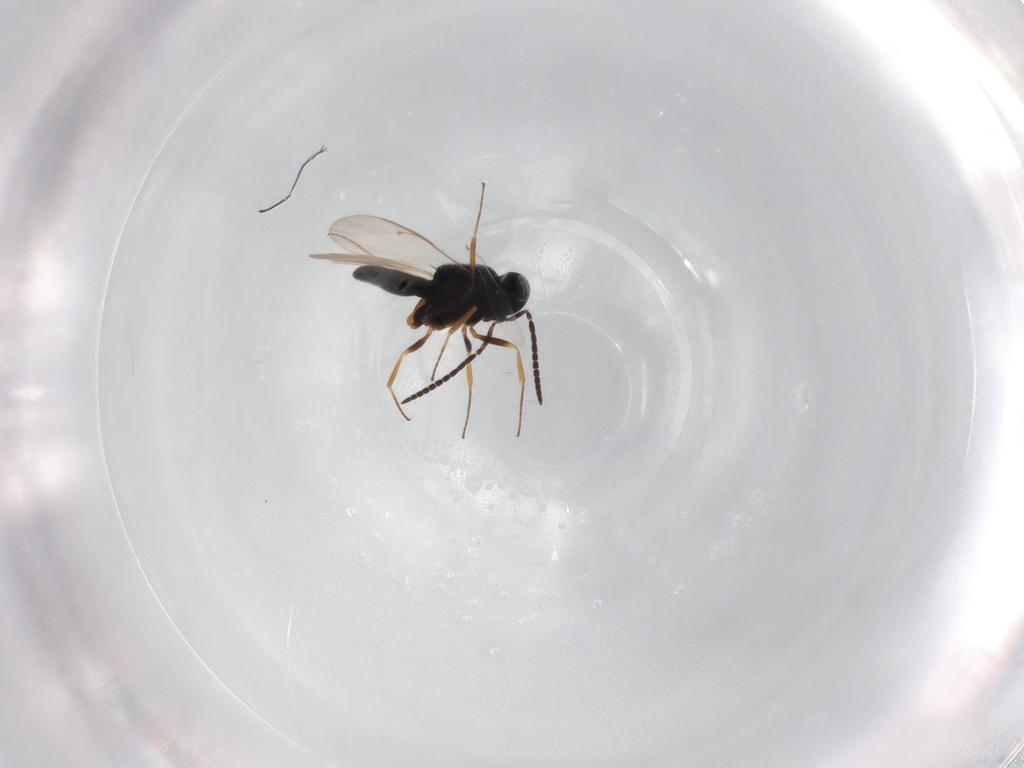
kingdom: Animalia
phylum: Arthropoda
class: Insecta
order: Hymenoptera
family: Scelionidae
